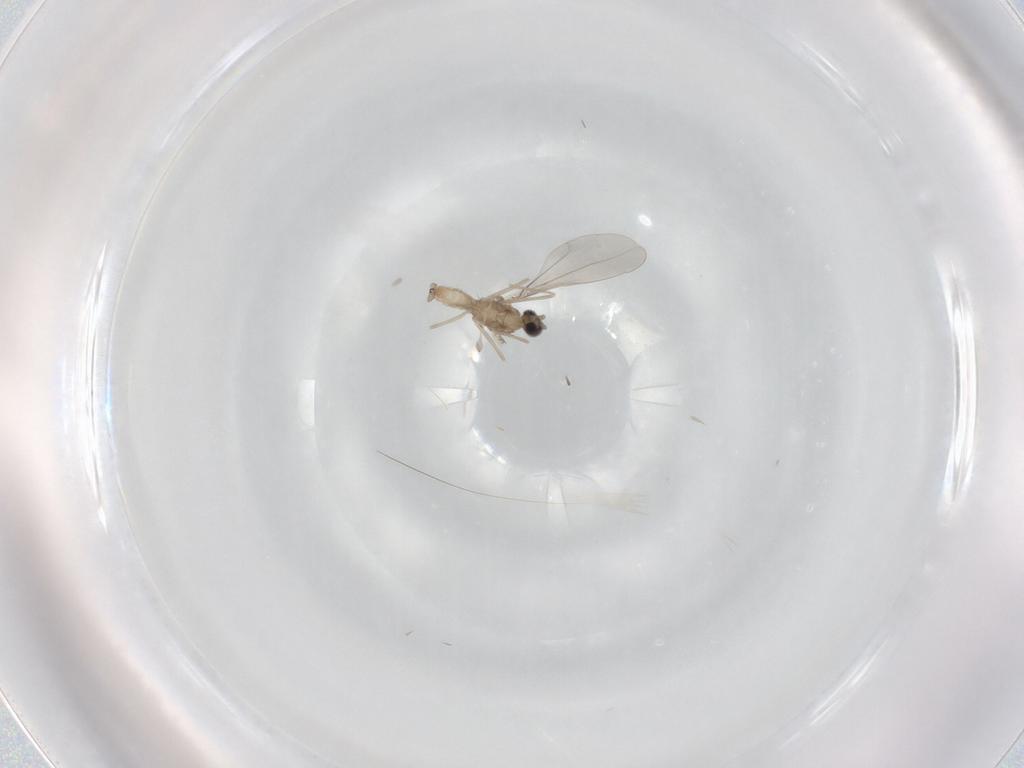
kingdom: Animalia
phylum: Arthropoda
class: Insecta
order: Diptera
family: Cecidomyiidae
